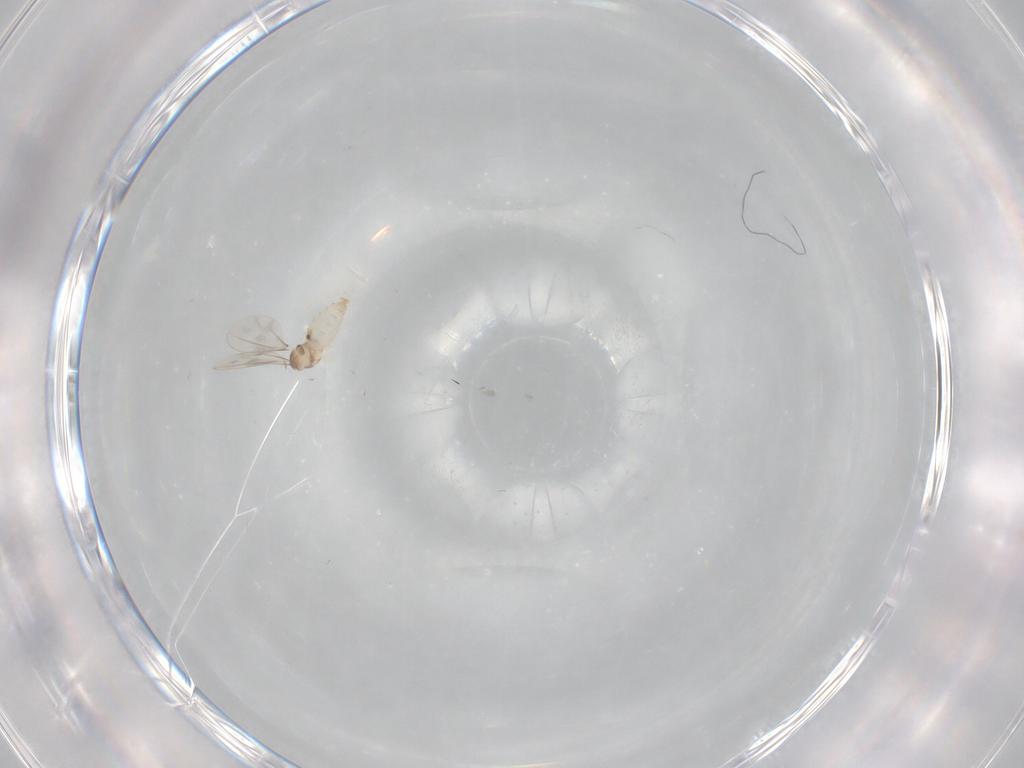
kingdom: Animalia
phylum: Arthropoda
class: Insecta
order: Diptera
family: Cecidomyiidae
